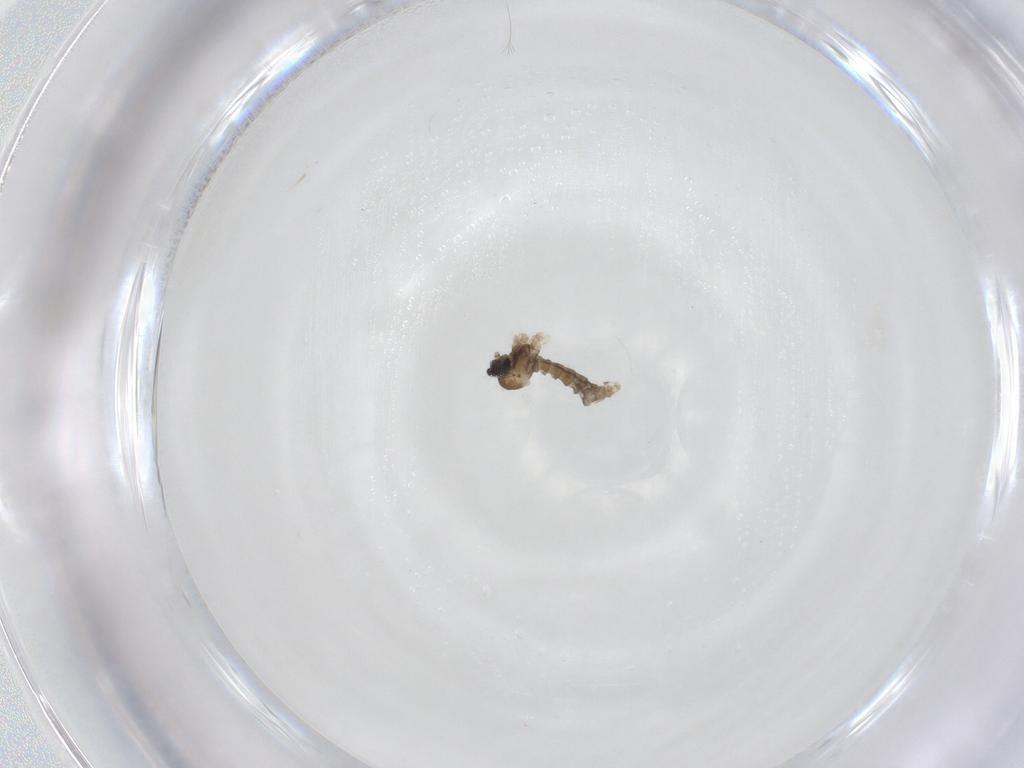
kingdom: Animalia
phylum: Arthropoda
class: Insecta
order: Diptera
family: Cecidomyiidae
